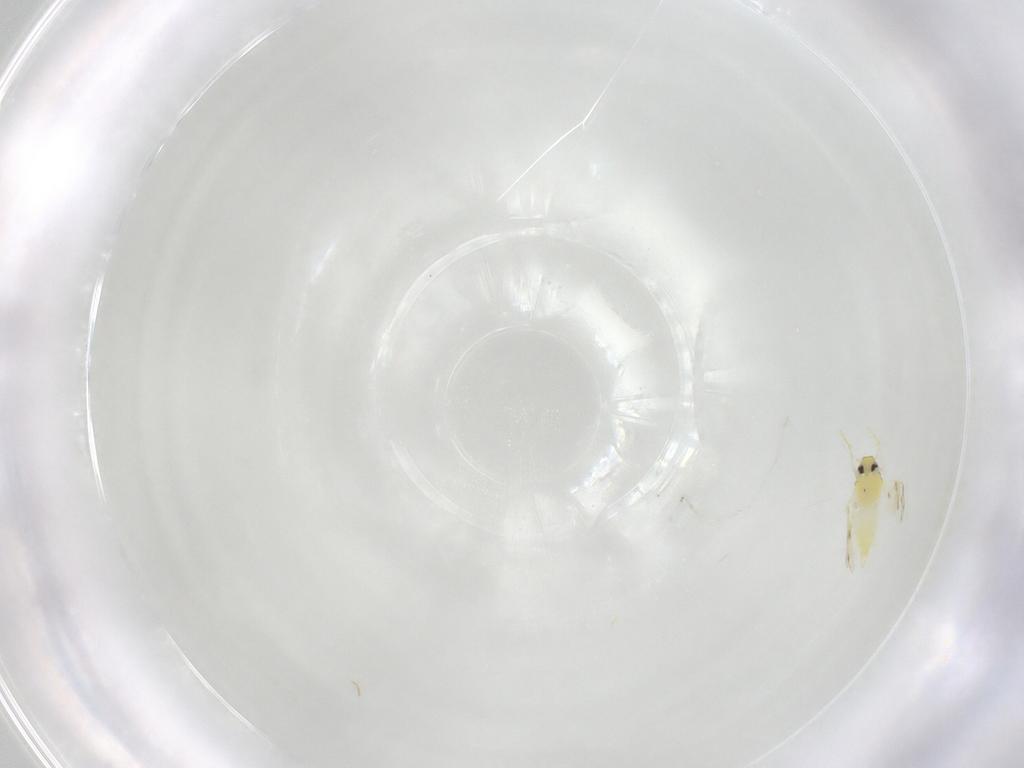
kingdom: Animalia
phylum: Arthropoda
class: Insecta
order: Hemiptera
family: Aleyrodidae
